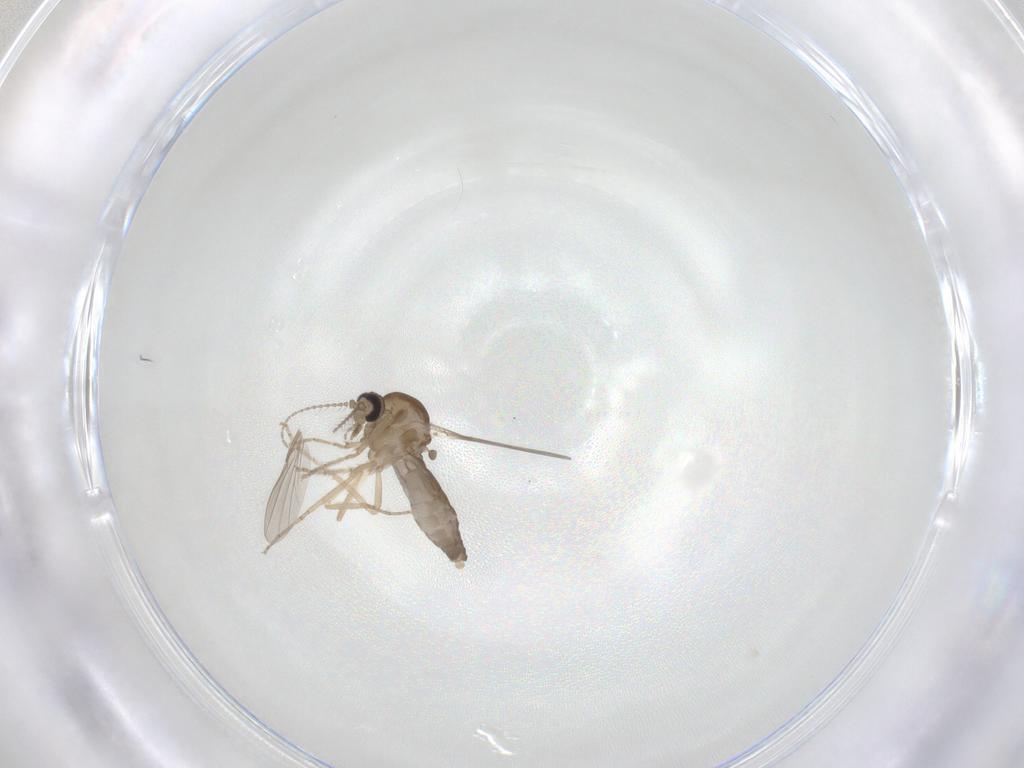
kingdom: Animalia
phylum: Arthropoda
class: Insecta
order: Diptera
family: Ceratopogonidae
